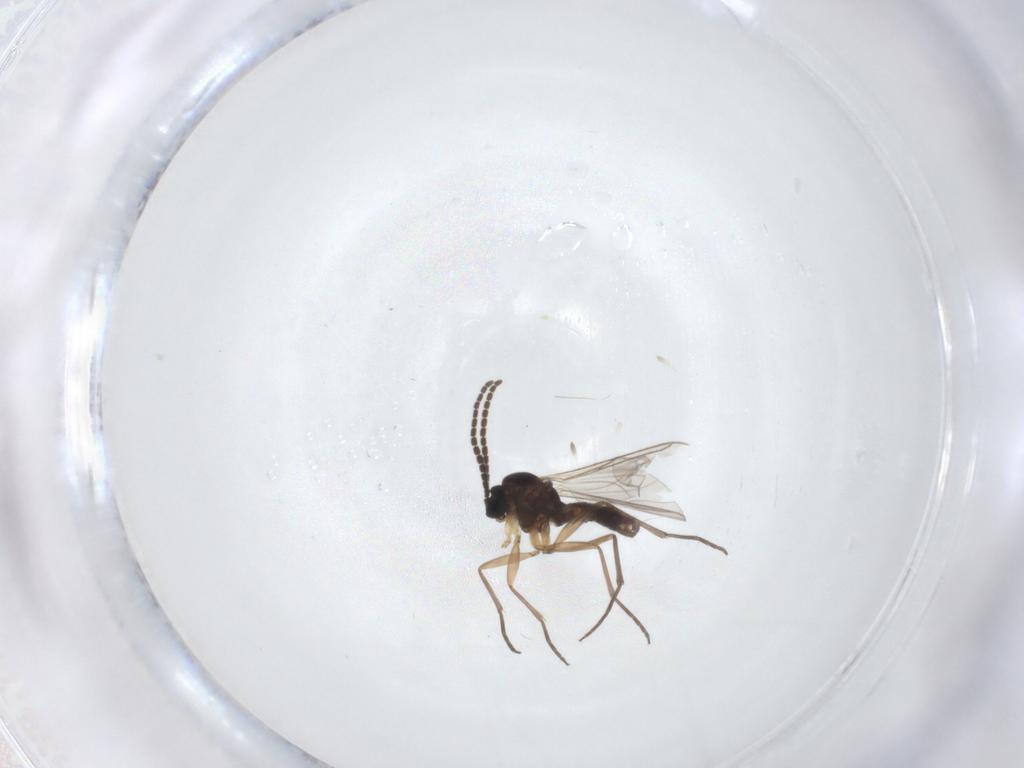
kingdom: Animalia
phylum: Arthropoda
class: Insecta
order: Diptera
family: Sciaridae
